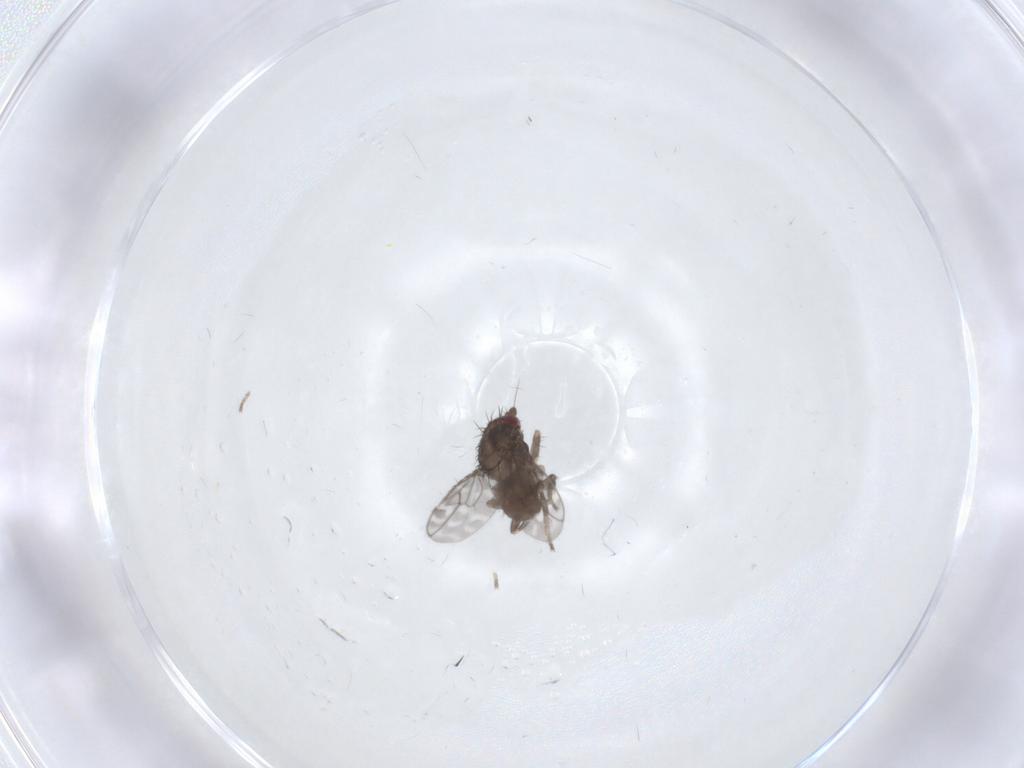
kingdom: Animalia
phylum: Arthropoda
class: Insecta
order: Diptera
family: Sphaeroceridae
